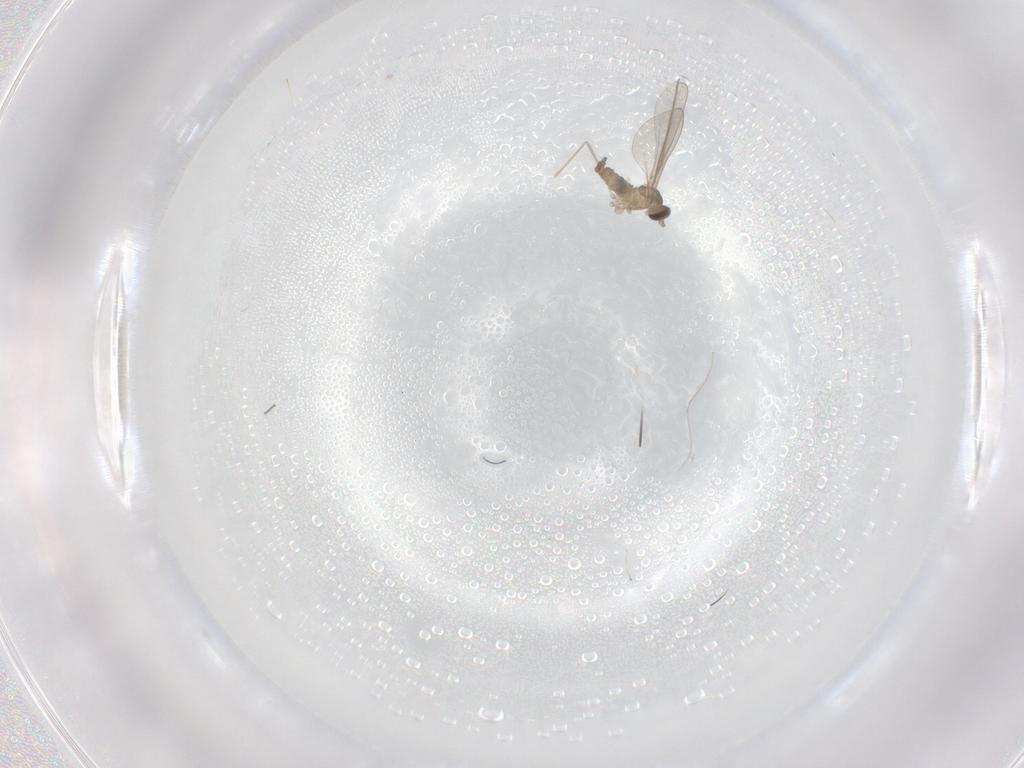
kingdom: Animalia
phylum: Arthropoda
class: Insecta
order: Diptera
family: Cecidomyiidae
